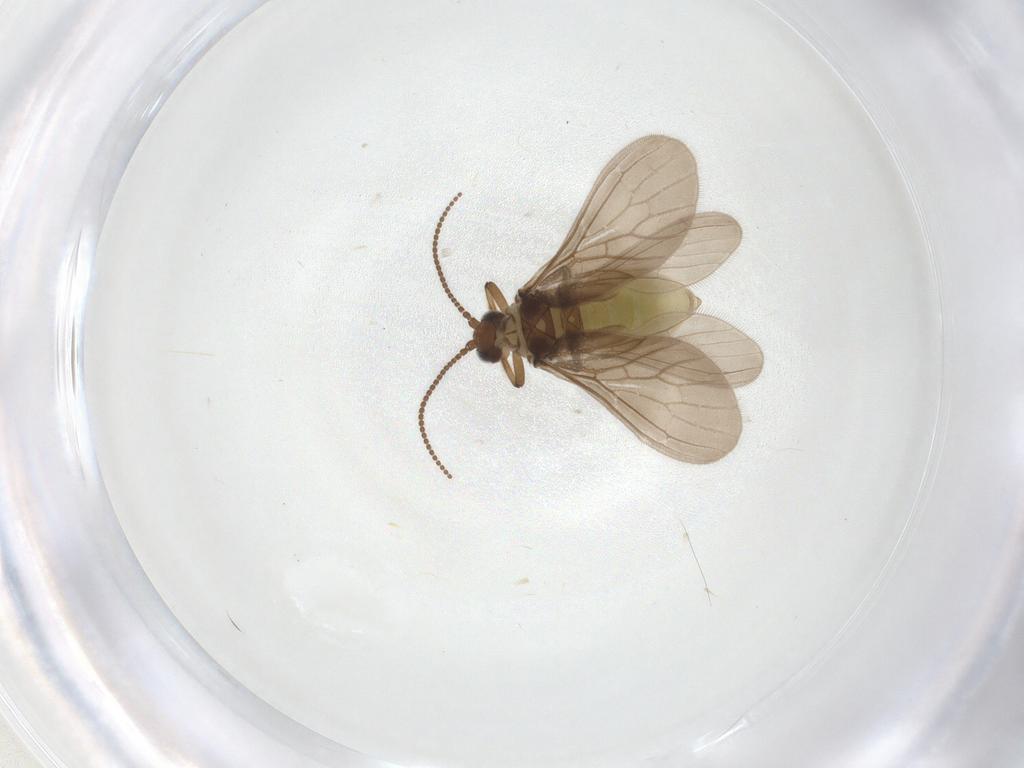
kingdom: Animalia
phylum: Arthropoda
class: Insecta
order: Neuroptera
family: Coniopterygidae
